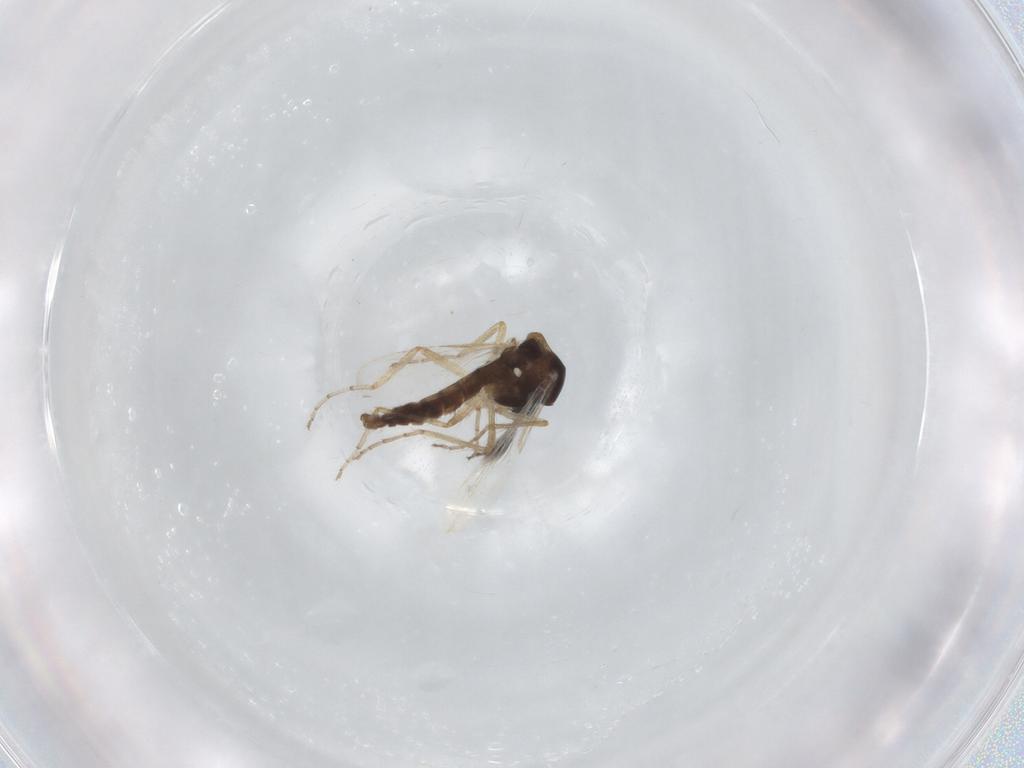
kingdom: Animalia
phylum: Arthropoda
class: Insecta
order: Diptera
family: Ceratopogonidae
